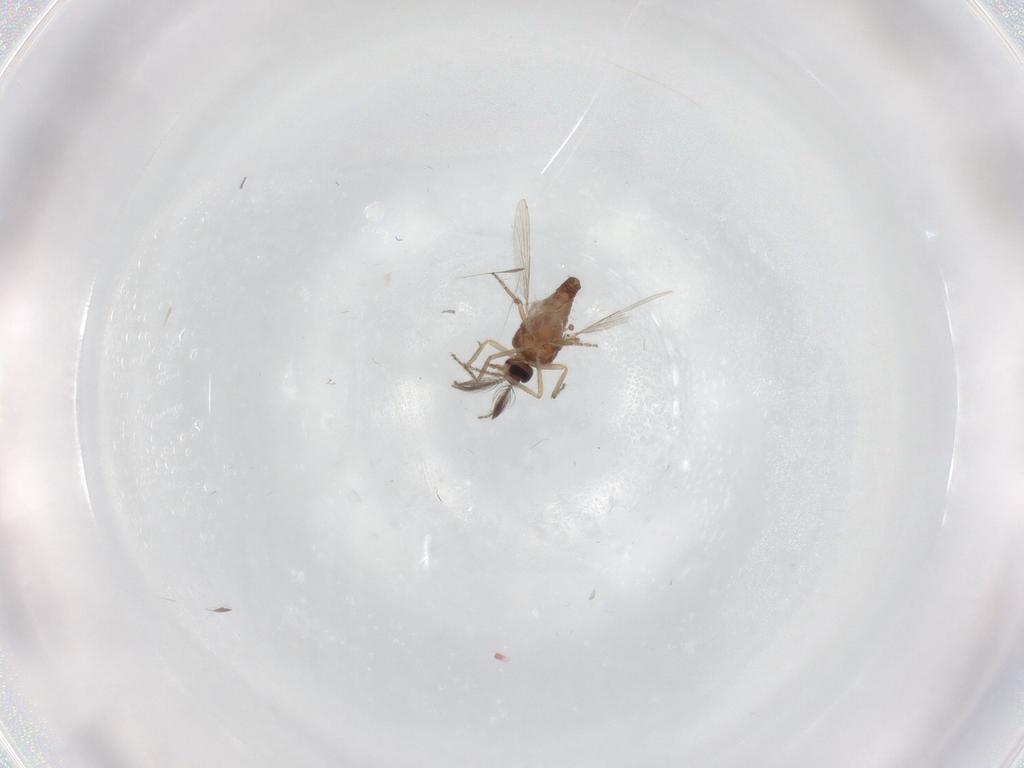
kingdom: Animalia
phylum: Arthropoda
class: Insecta
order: Diptera
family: Ceratopogonidae
